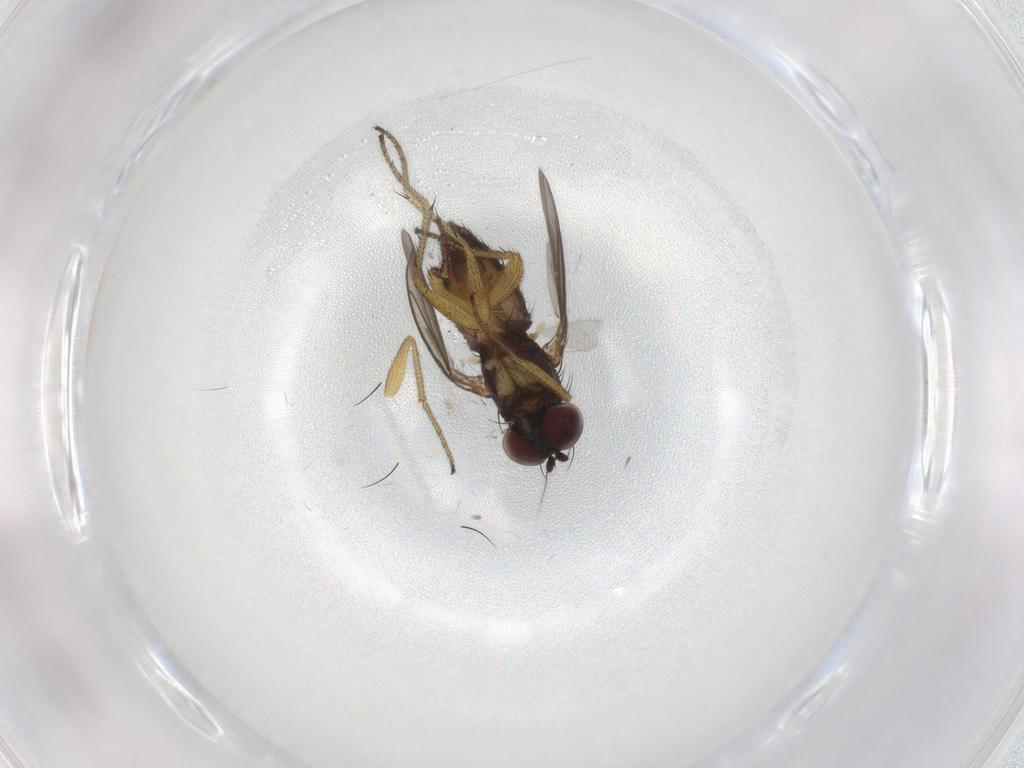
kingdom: Animalia
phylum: Arthropoda
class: Insecta
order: Diptera
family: Dolichopodidae
